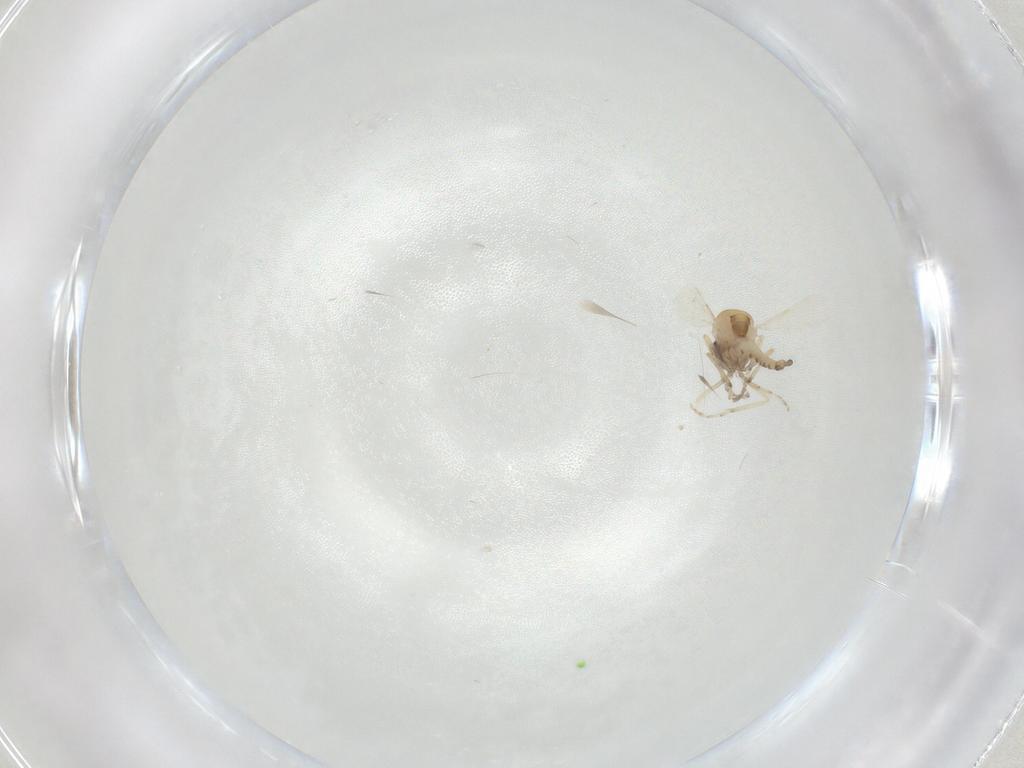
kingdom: Animalia
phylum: Arthropoda
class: Insecta
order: Diptera
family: Ceratopogonidae
